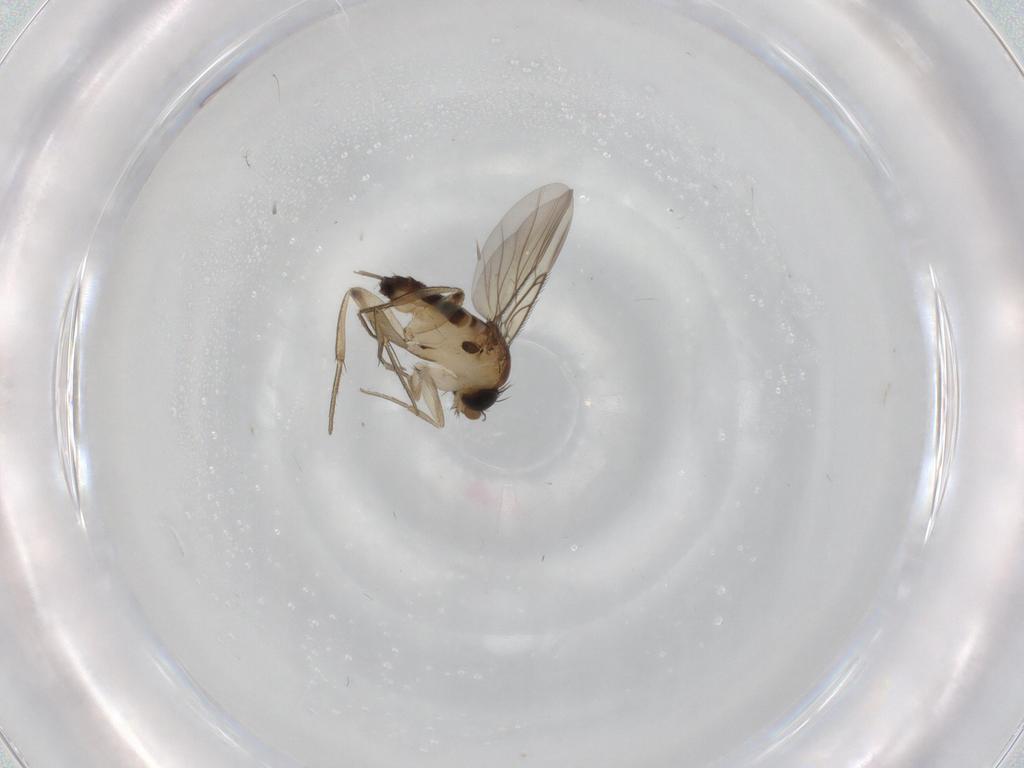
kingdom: Animalia
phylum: Arthropoda
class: Insecta
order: Diptera
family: Phoridae
